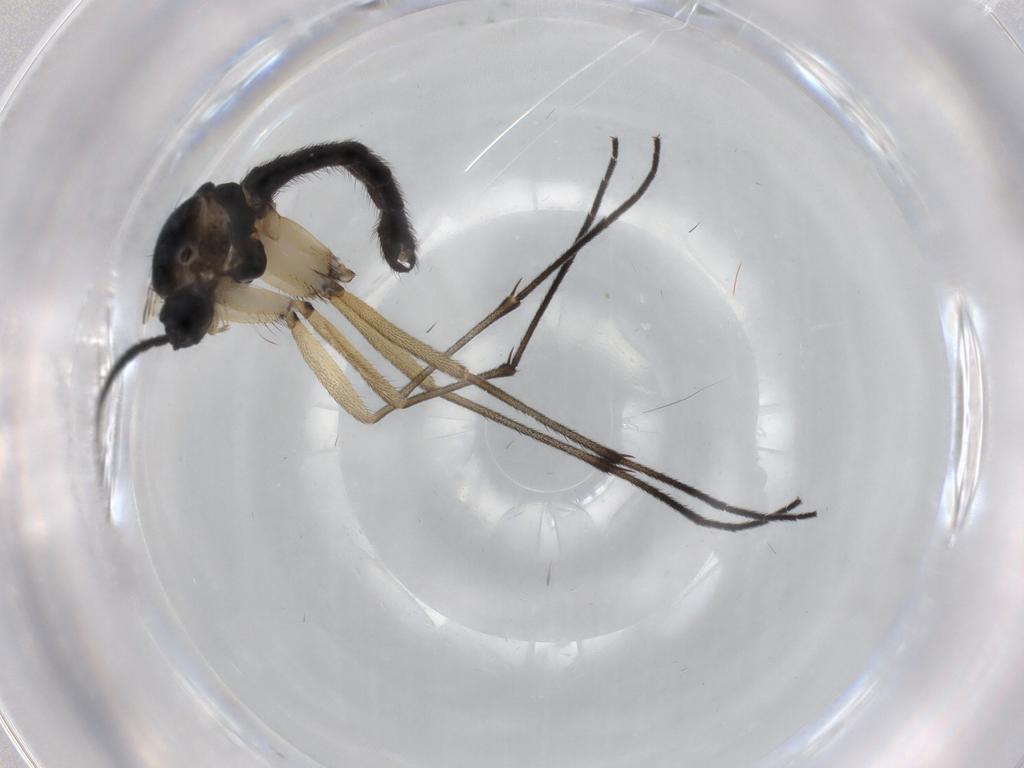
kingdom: Animalia
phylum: Arthropoda
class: Insecta
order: Diptera
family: Sciaridae
